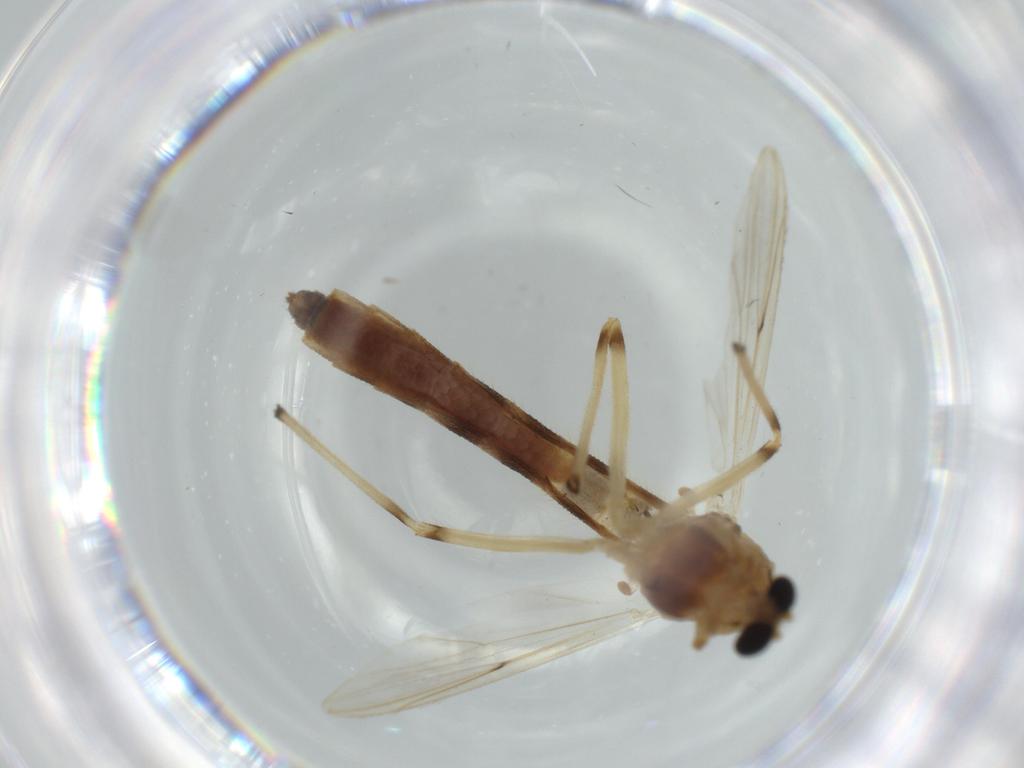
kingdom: Animalia
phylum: Arthropoda
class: Insecta
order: Diptera
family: Chironomidae
